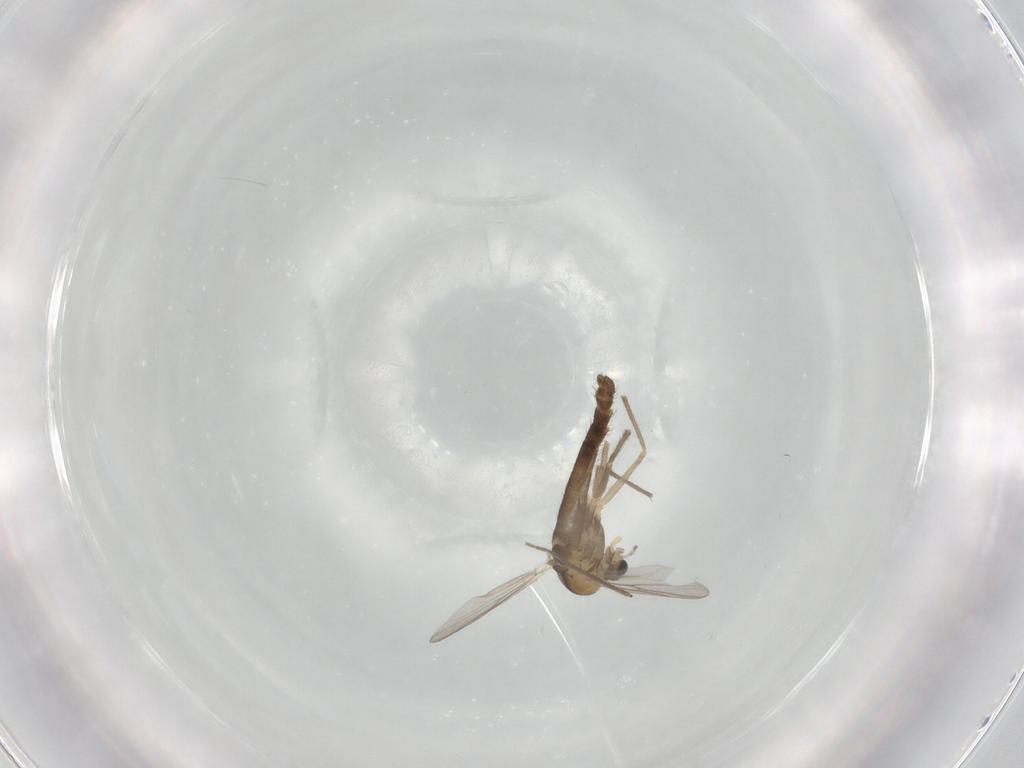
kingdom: Animalia
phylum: Arthropoda
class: Insecta
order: Diptera
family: Chironomidae
